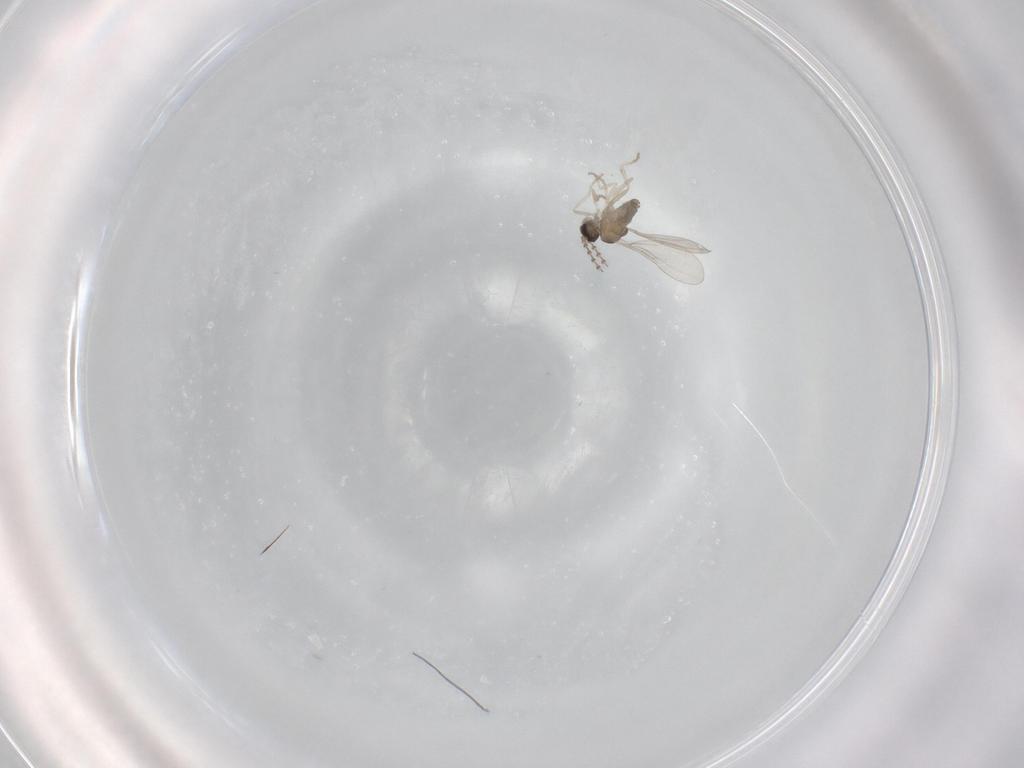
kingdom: Animalia
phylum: Arthropoda
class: Insecta
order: Diptera
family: Cecidomyiidae
